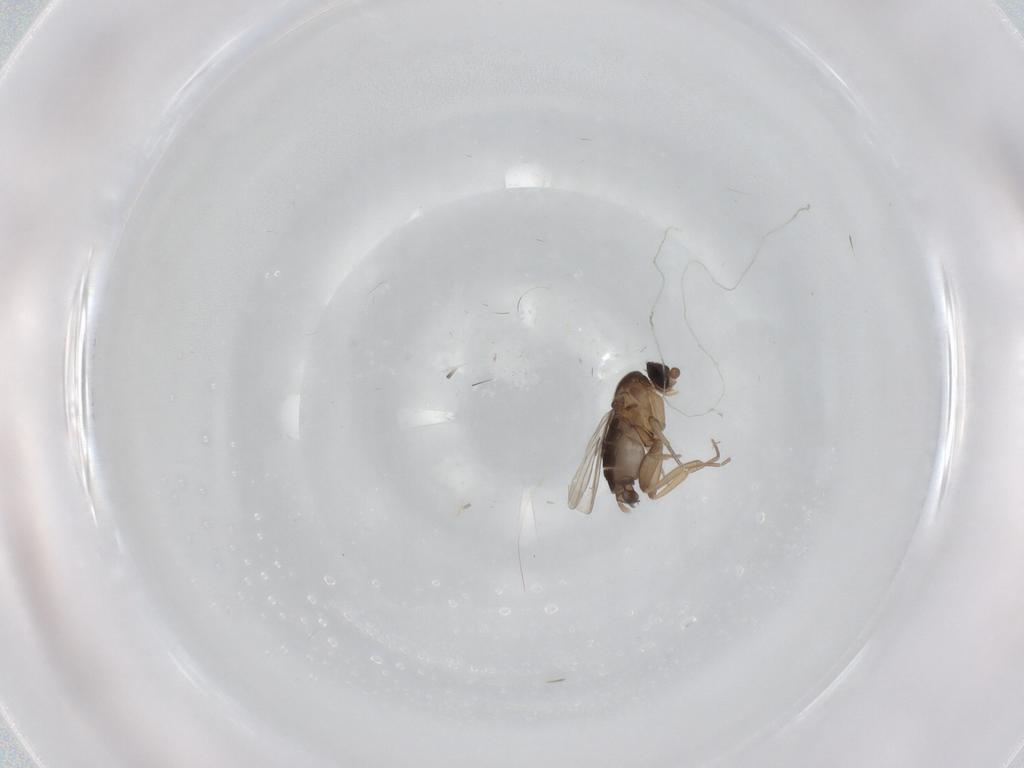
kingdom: Animalia
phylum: Arthropoda
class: Insecta
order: Diptera
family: Phoridae
